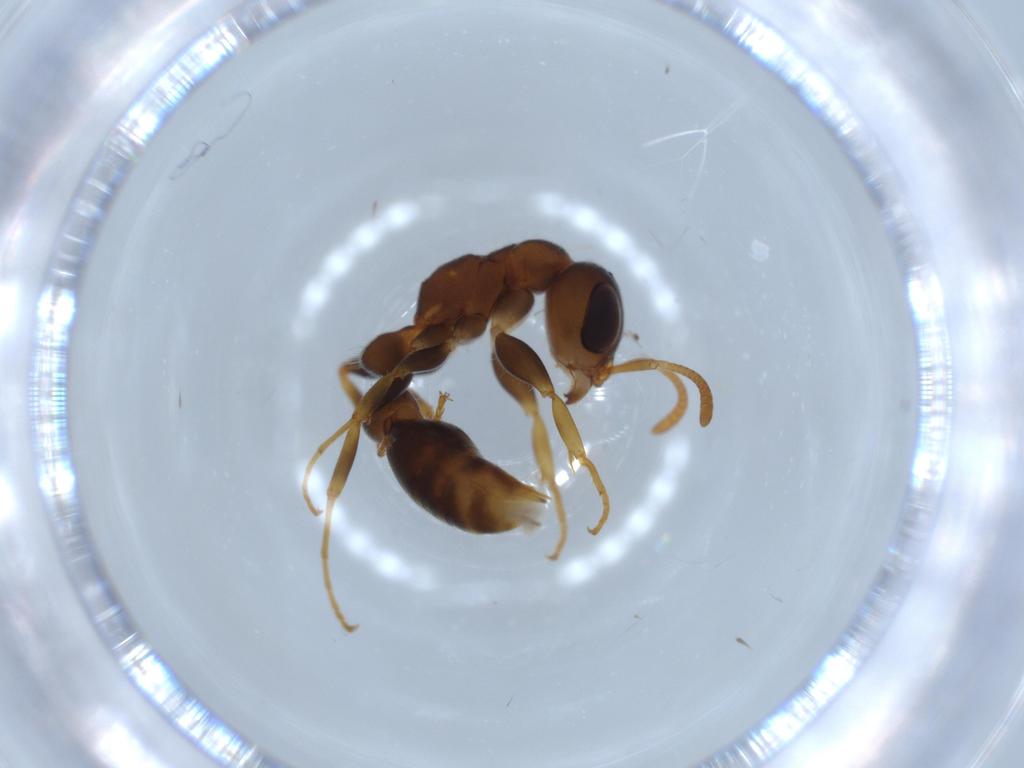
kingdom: Animalia
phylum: Arthropoda
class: Insecta
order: Hymenoptera
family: Formicidae
